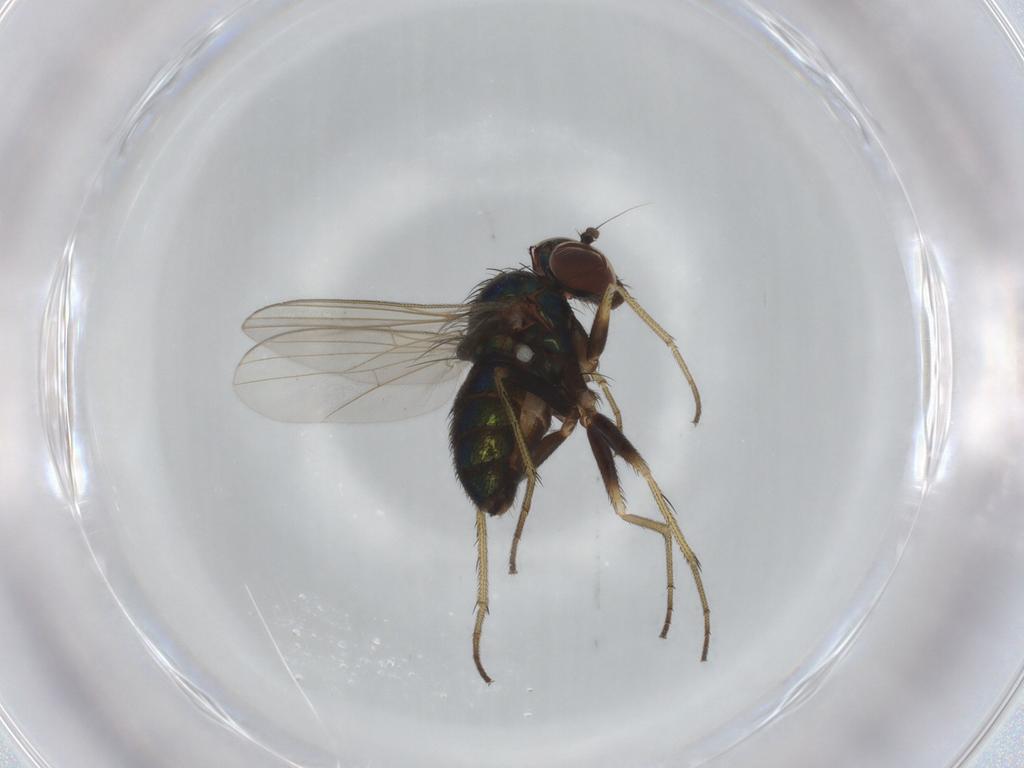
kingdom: Animalia
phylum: Arthropoda
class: Insecta
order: Diptera
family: Dolichopodidae
